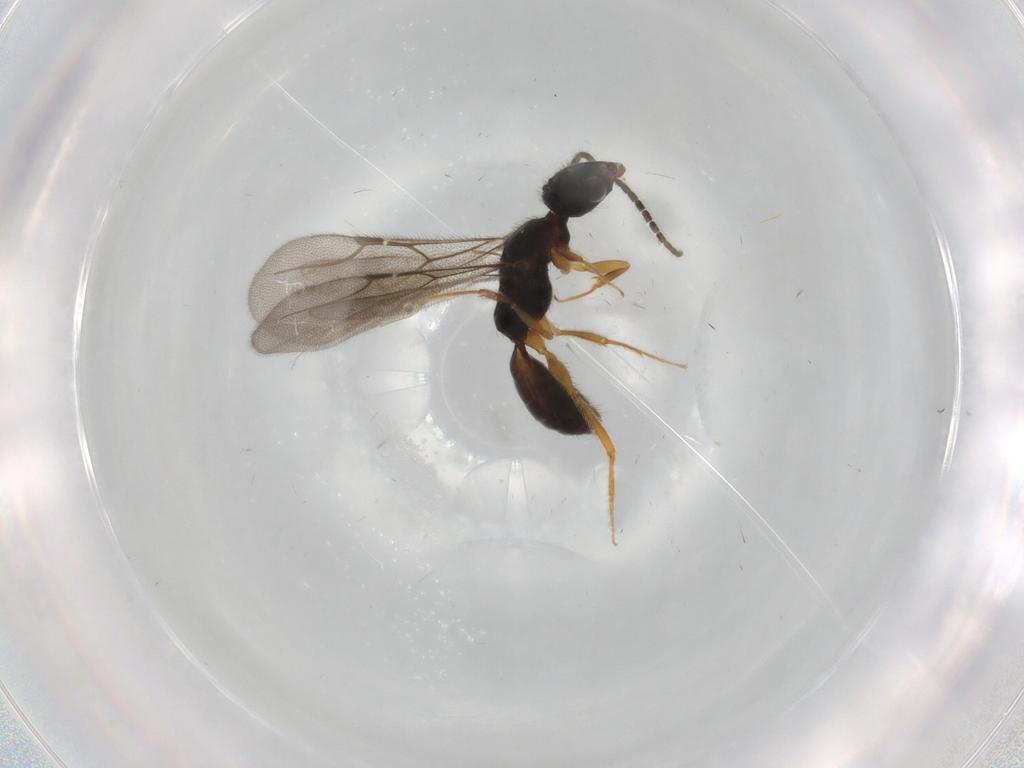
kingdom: Animalia
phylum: Arthropoda
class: Insecta
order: Hymenoptera
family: Bethylidae
